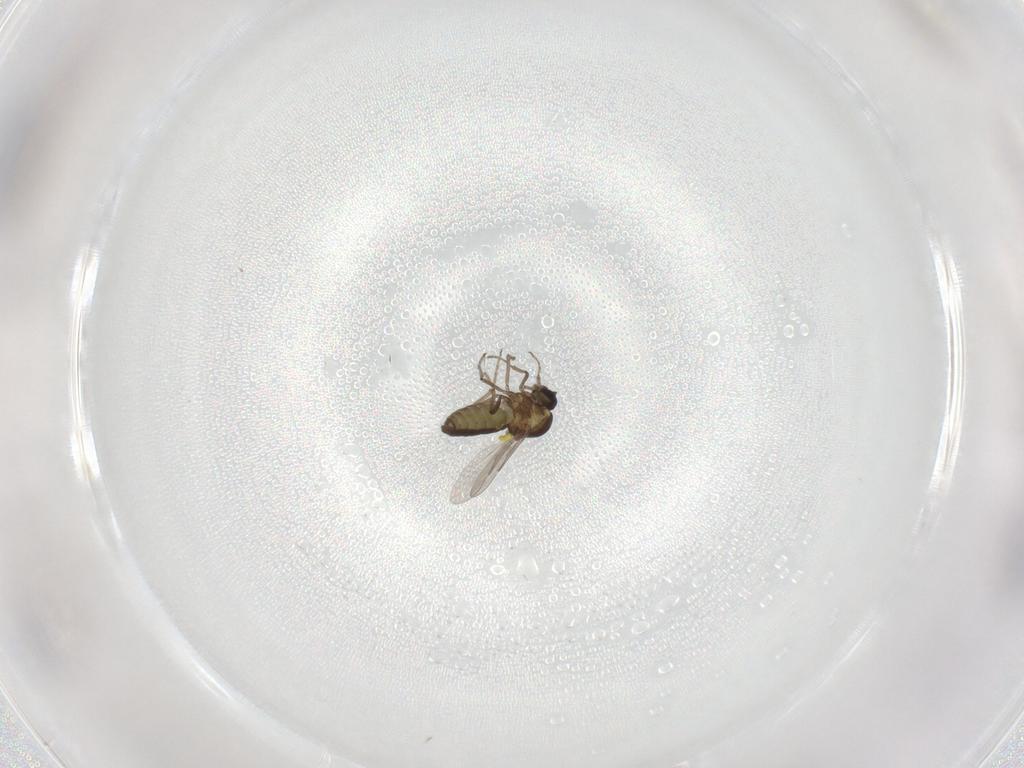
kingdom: Animalia
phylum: Arthropoda
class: Insecta
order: Diptera
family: Ceratopogonidae
